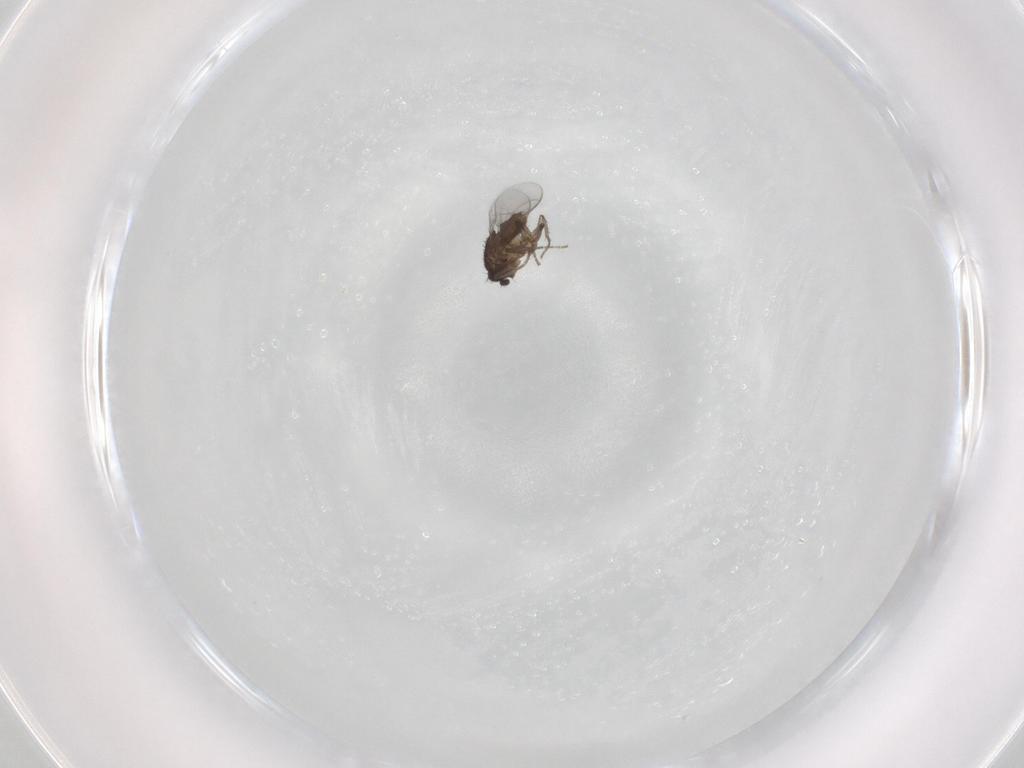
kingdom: Animalia
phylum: Arthropoda
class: Insecta
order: Diptera
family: Sphaeroceridae
